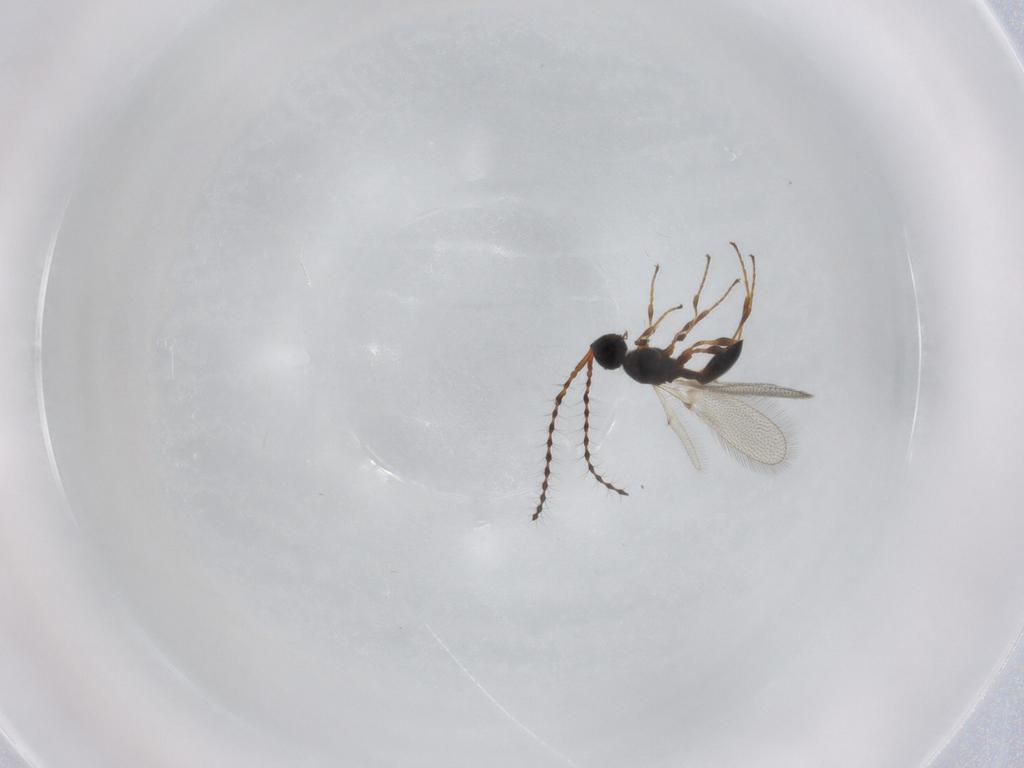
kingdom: Animalia
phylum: Arthropoda
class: Insecta
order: Hymenoptera
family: Diapriidae
